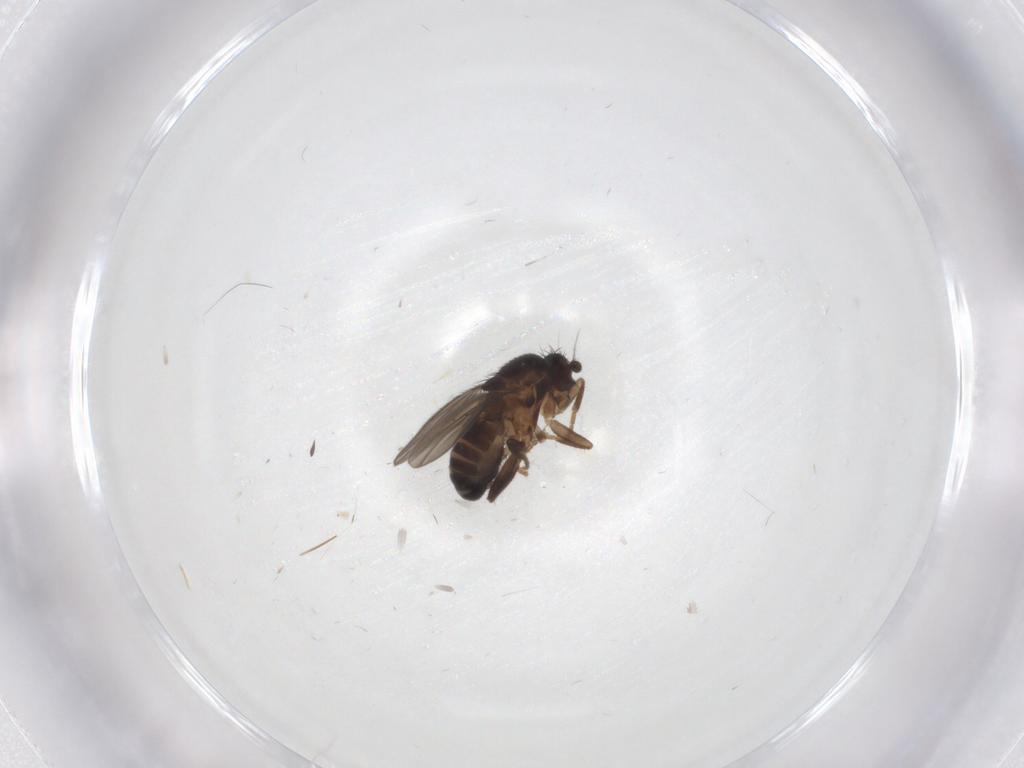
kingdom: Animalia
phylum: Arthropoda
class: Insecta
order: Diptera
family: Sphaeroceridae
